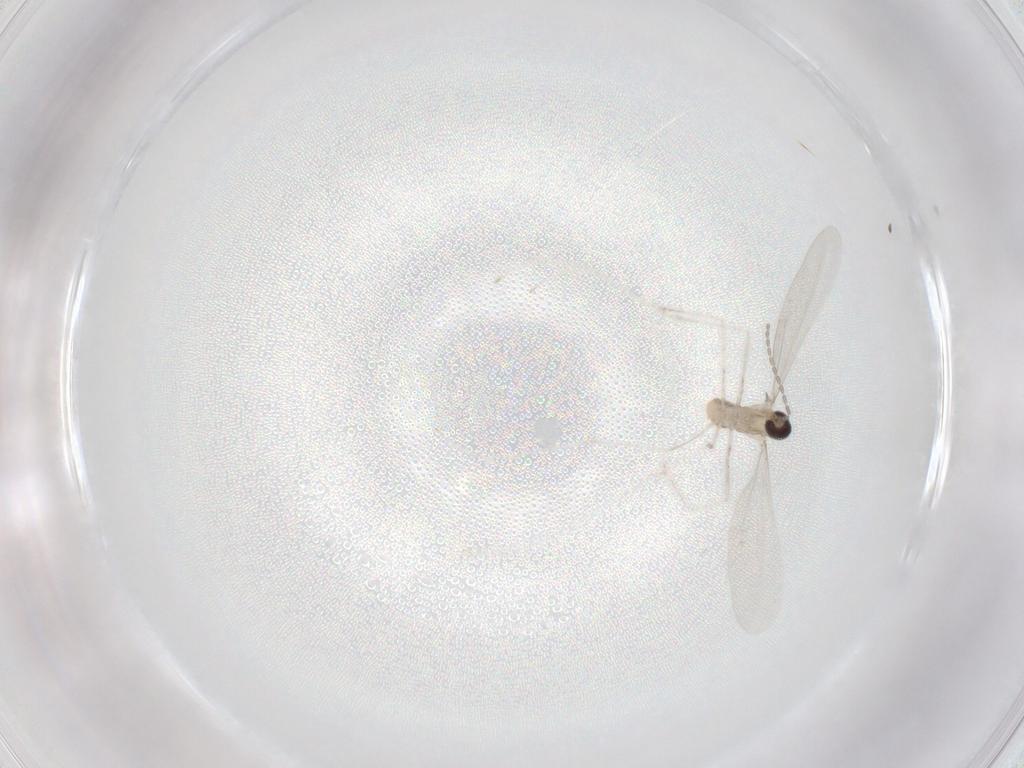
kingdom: Animalia
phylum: Arthropoda
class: Insecta
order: Diptera
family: Cecidomyiidae
